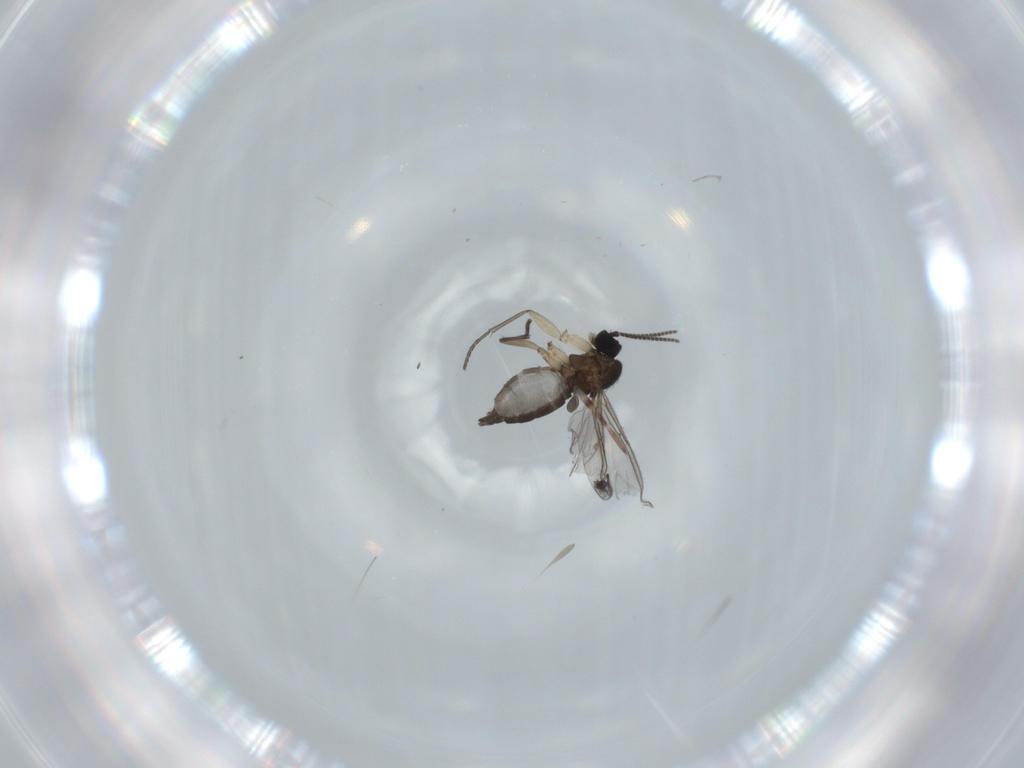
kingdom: Animalia
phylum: Arthropoda
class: Insecta
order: Diptera
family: Sciaridae
